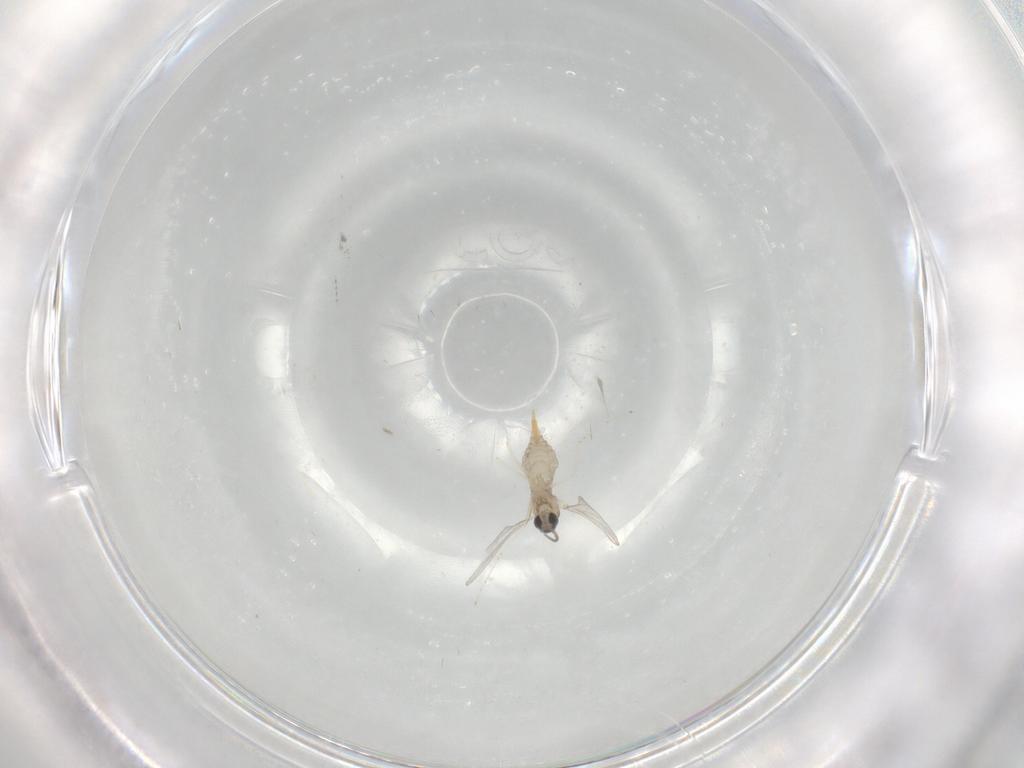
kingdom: Animalia
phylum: Arthropoda
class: Insecta
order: Diptera
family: Cecidomyiidae
